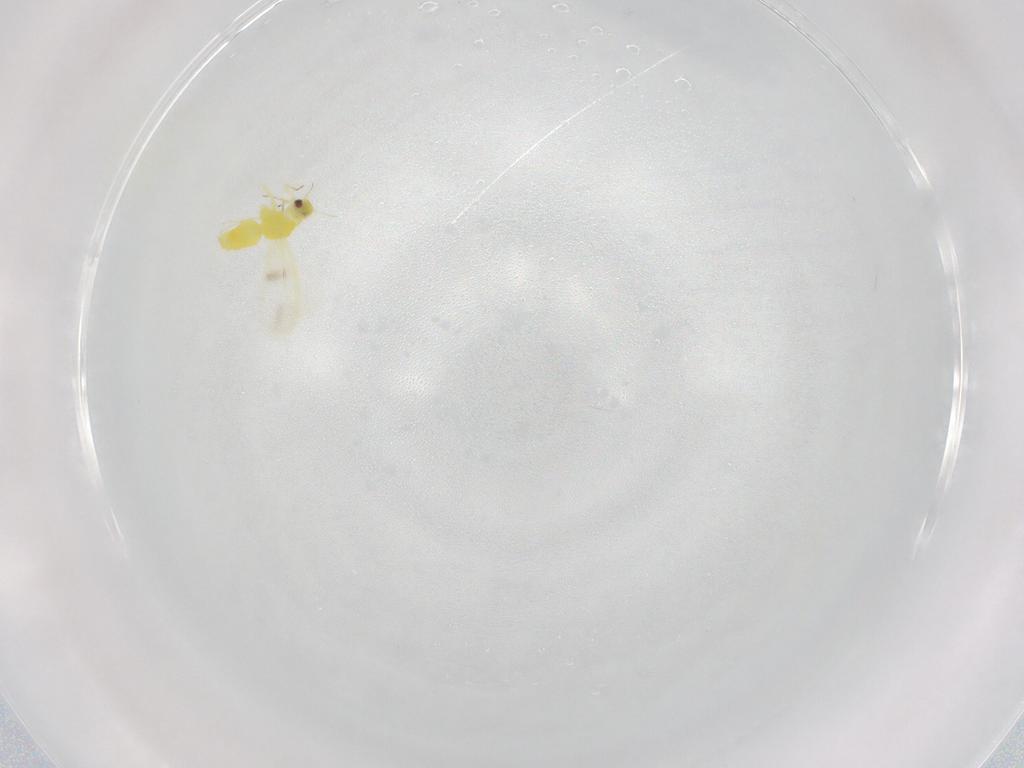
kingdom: Animalia
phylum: Arthropoda
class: Insecta
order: Hemiptera
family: Aleyrodidae
